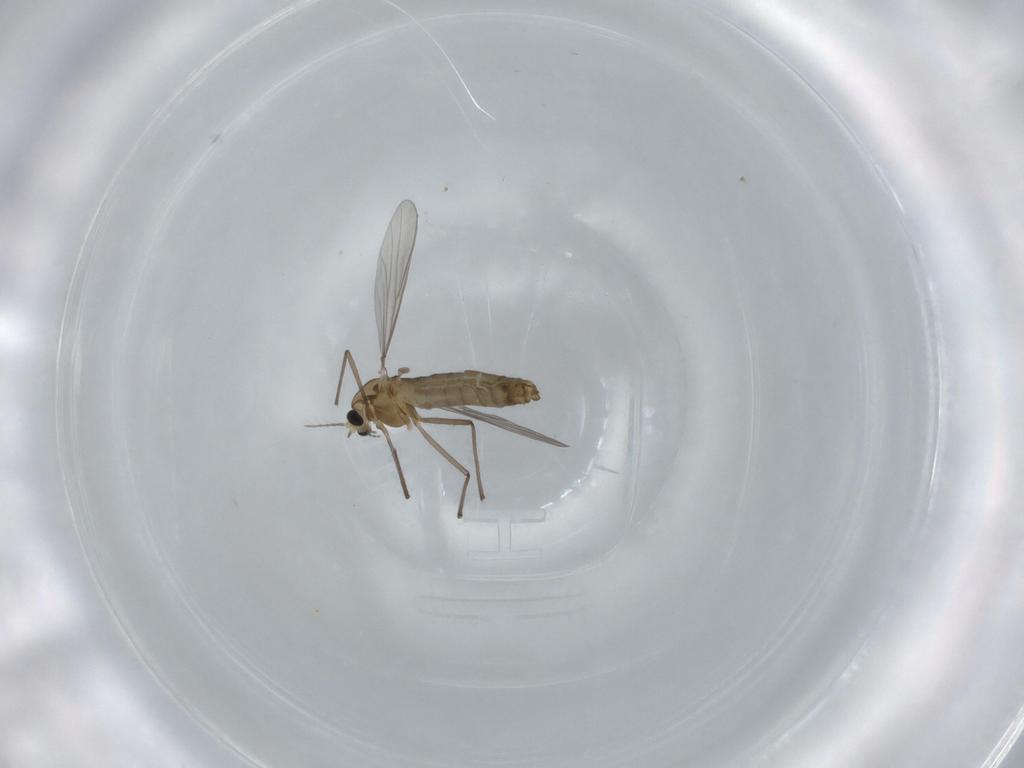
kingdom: Animalia
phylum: Arthropoda
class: Insecta
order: Diptera
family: Chironomidae
